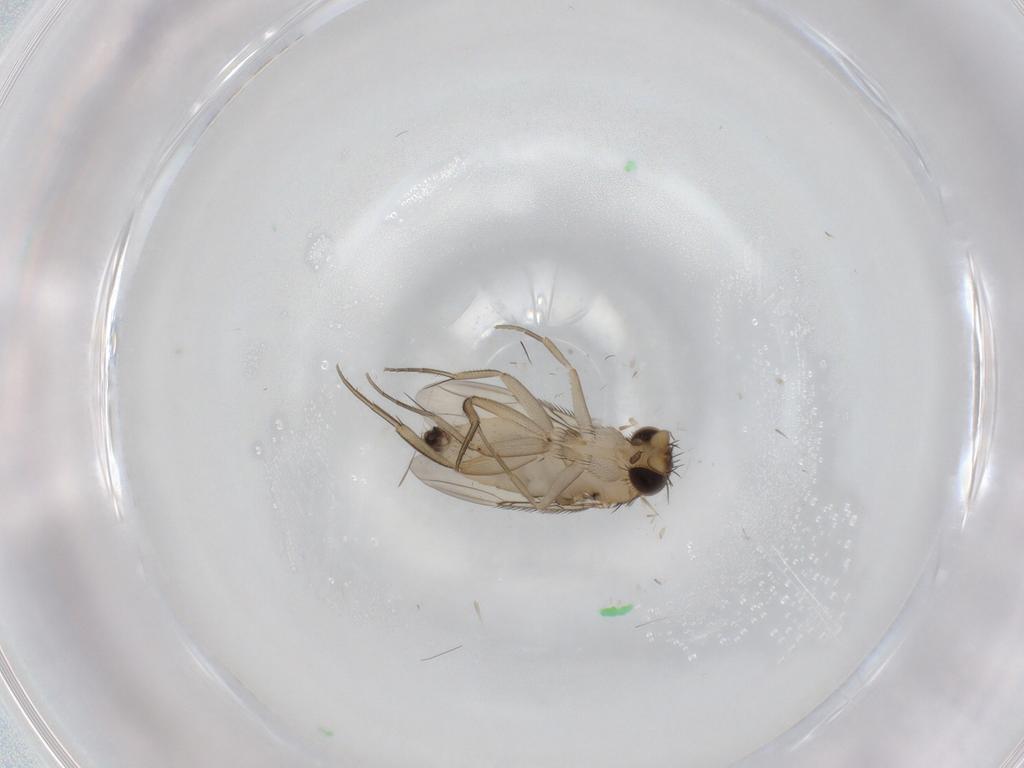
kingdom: Animalia
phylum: Arthropoda
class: Insecta
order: Diptera
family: Phoridae
